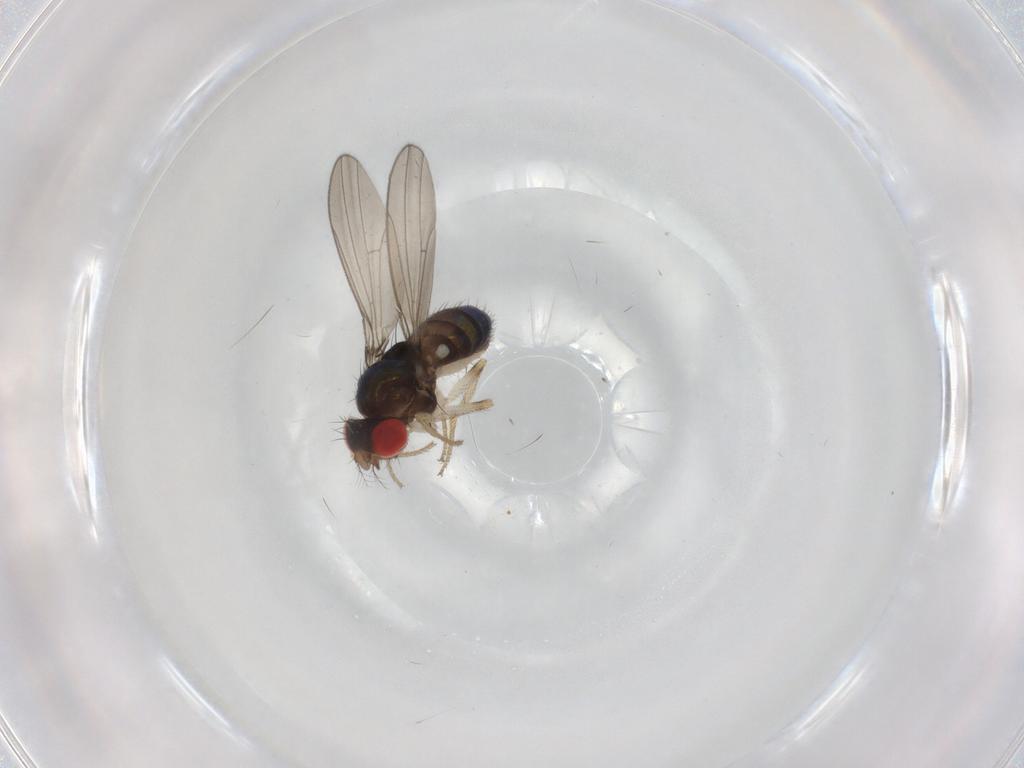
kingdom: Animalia
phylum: Arthropoda
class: Insecta
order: Diptera
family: Drosophilidae
